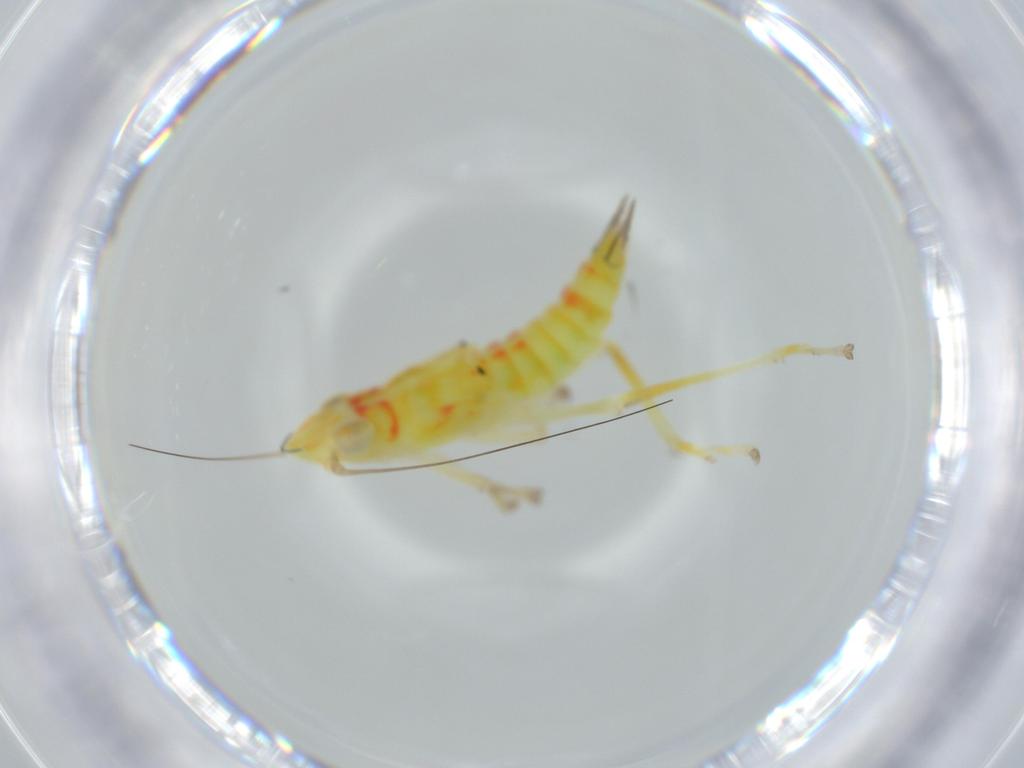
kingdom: Animalia
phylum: Arthropoda
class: Insecta
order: Hemiptera
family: Cicadellidae
